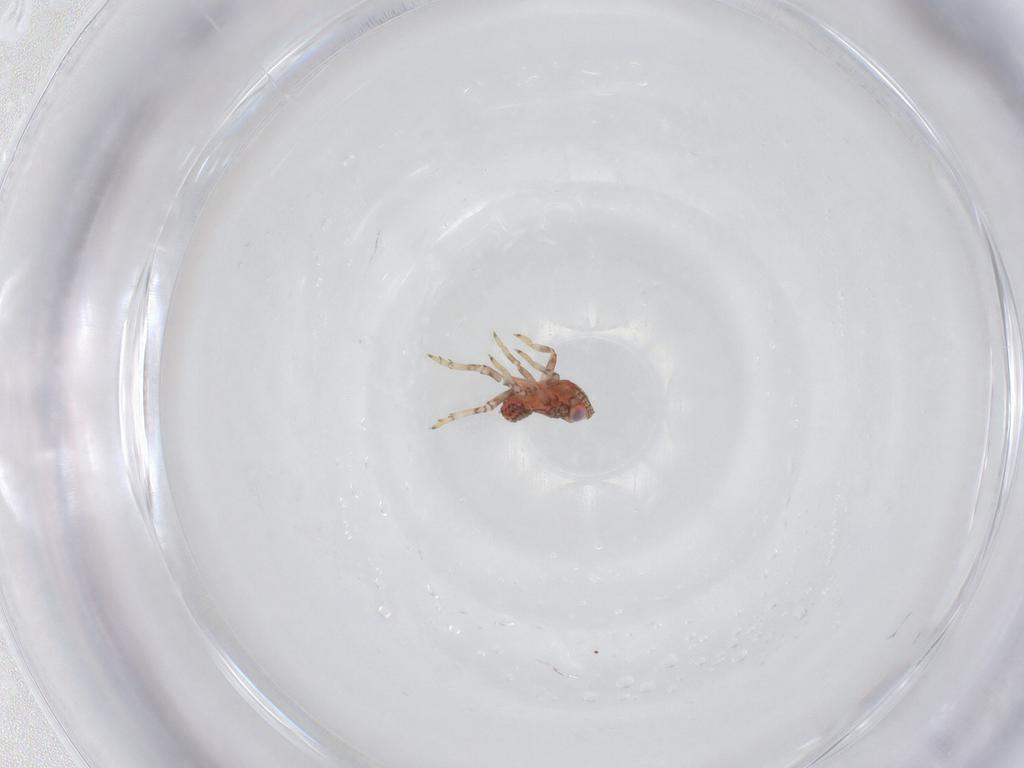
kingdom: Animalia
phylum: Arthropoda
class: Insecta
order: Hemiptera
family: Issidae
